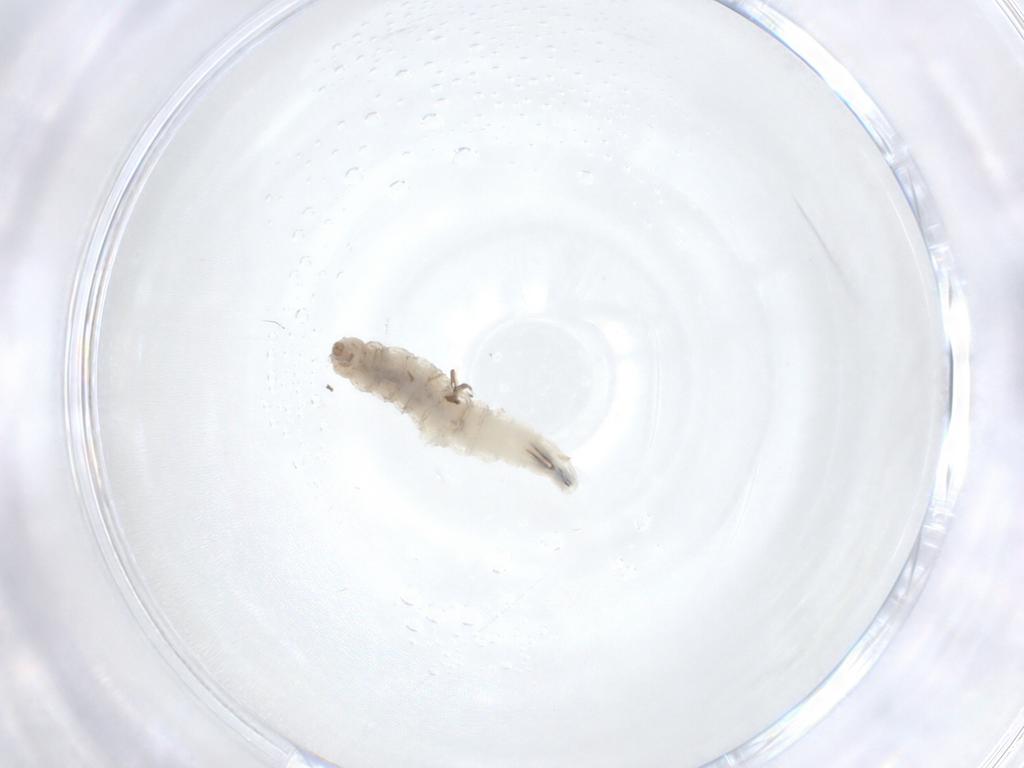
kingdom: Animalia
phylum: Arthropoda
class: Insecta
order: Diptera
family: Drosophilidae
